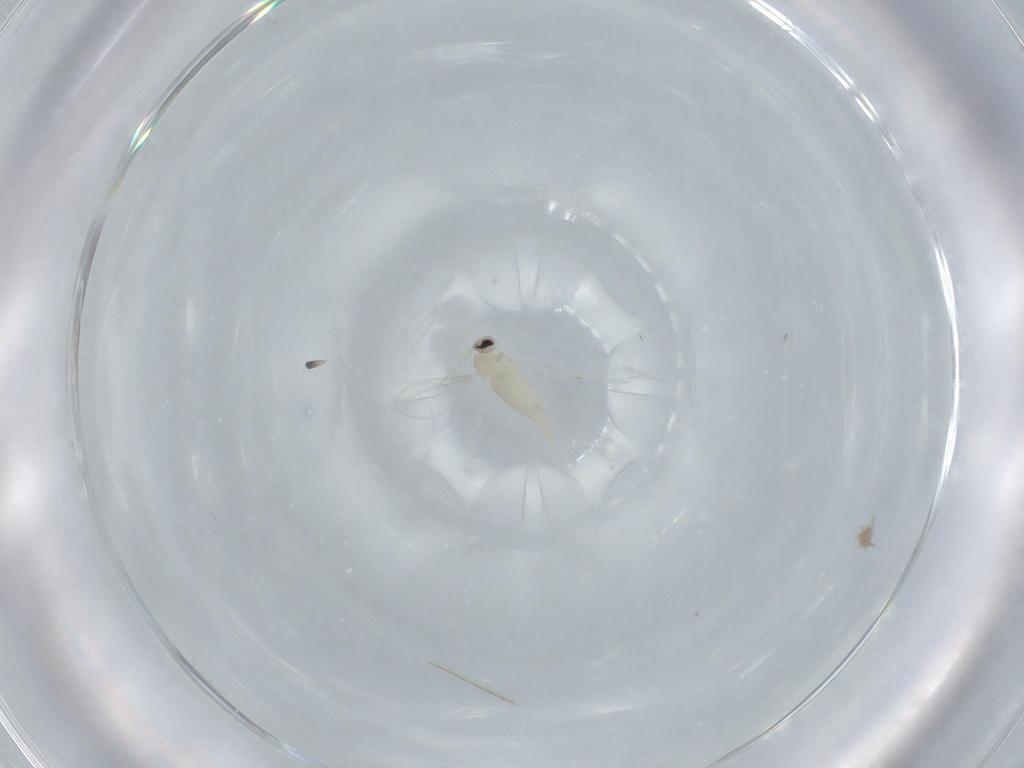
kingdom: Animalia
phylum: Arthropoda
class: Insecta
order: Diptera
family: Cecidomyiidae
